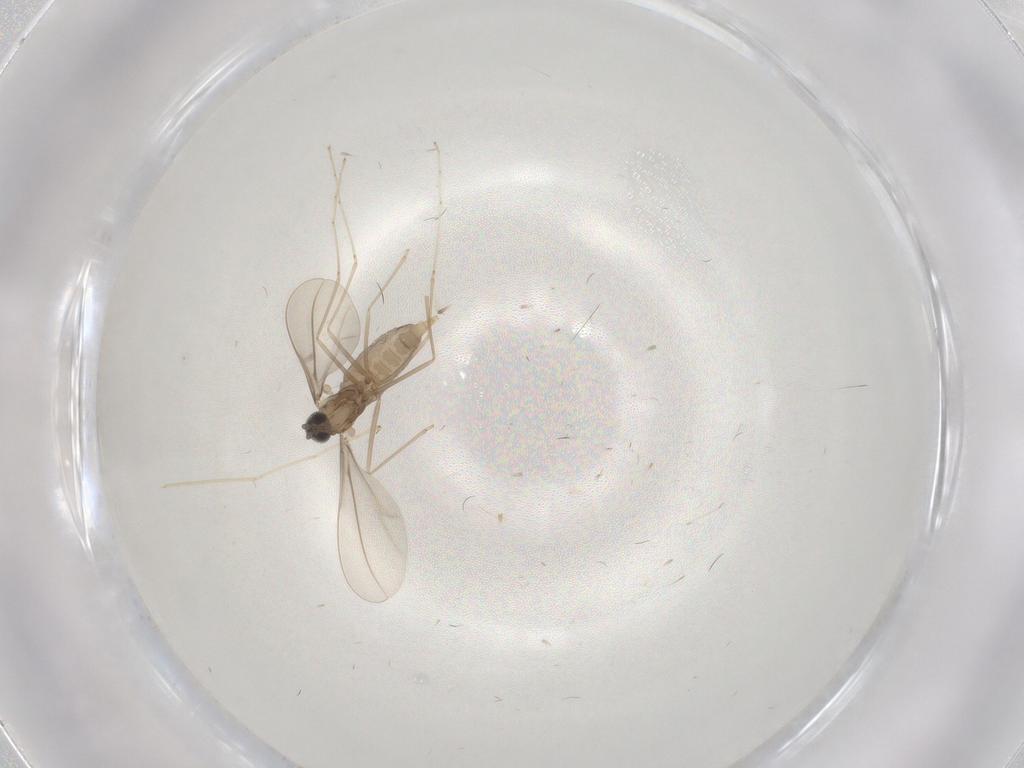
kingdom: Animalia
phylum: Arthropoda
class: Insecta
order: Diptera
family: Cecidomyiidae
